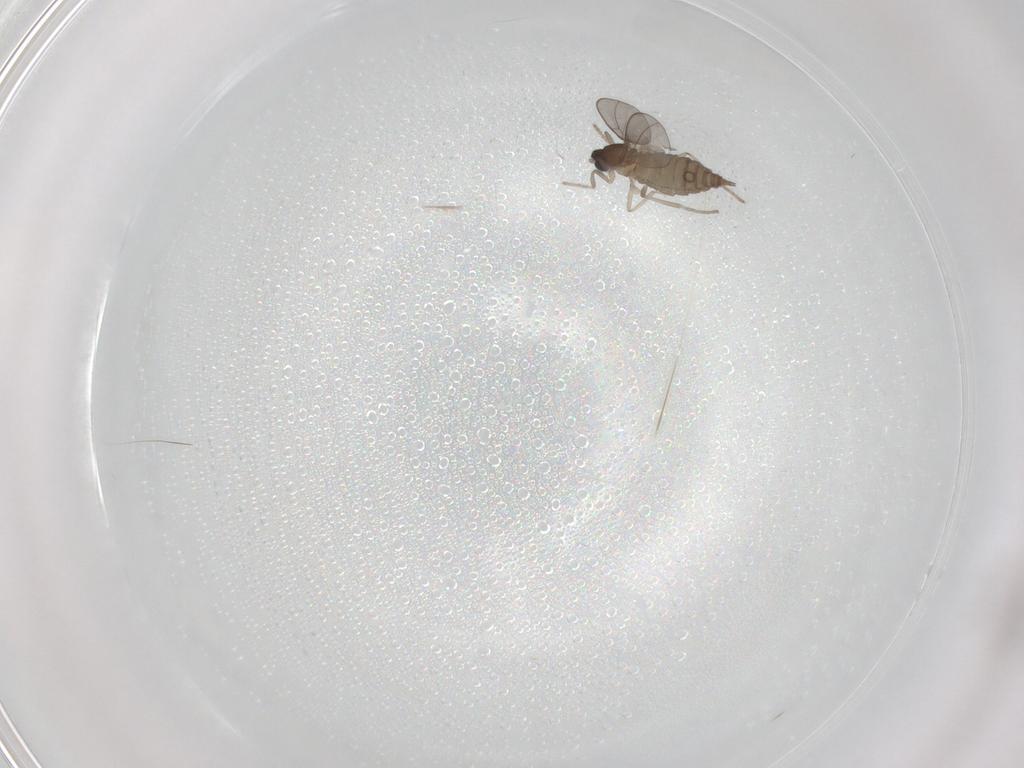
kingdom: Animalia
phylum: Arthropoda
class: Insecta
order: Diptera
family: Cecidomyiidae
